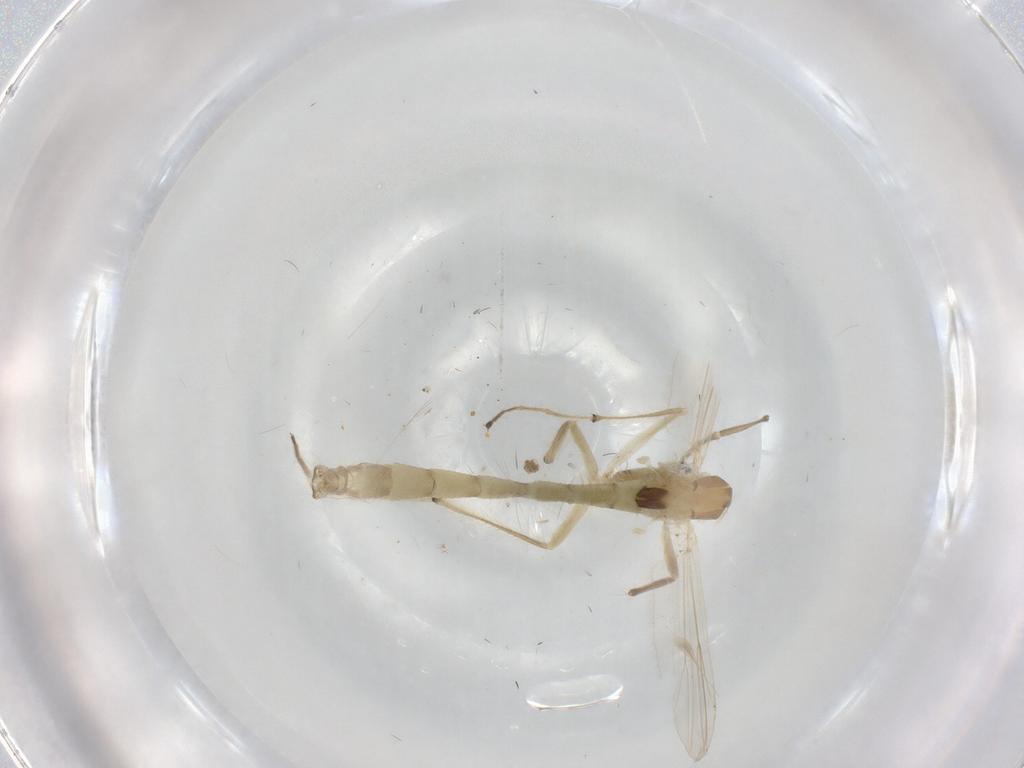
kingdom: Animalia
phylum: Arthropoda
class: Insecta
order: Diptera
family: Chironomidae
